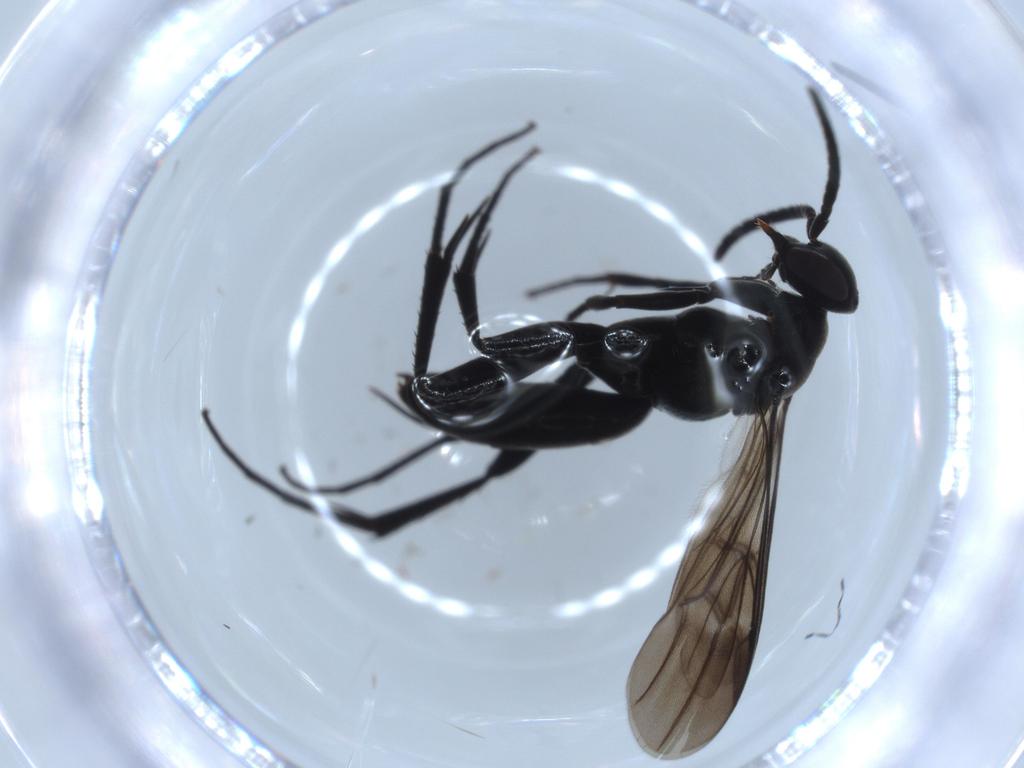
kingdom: Animalia
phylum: Arthropoda
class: Insecta
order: Hymenoptera
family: Pompilidae
